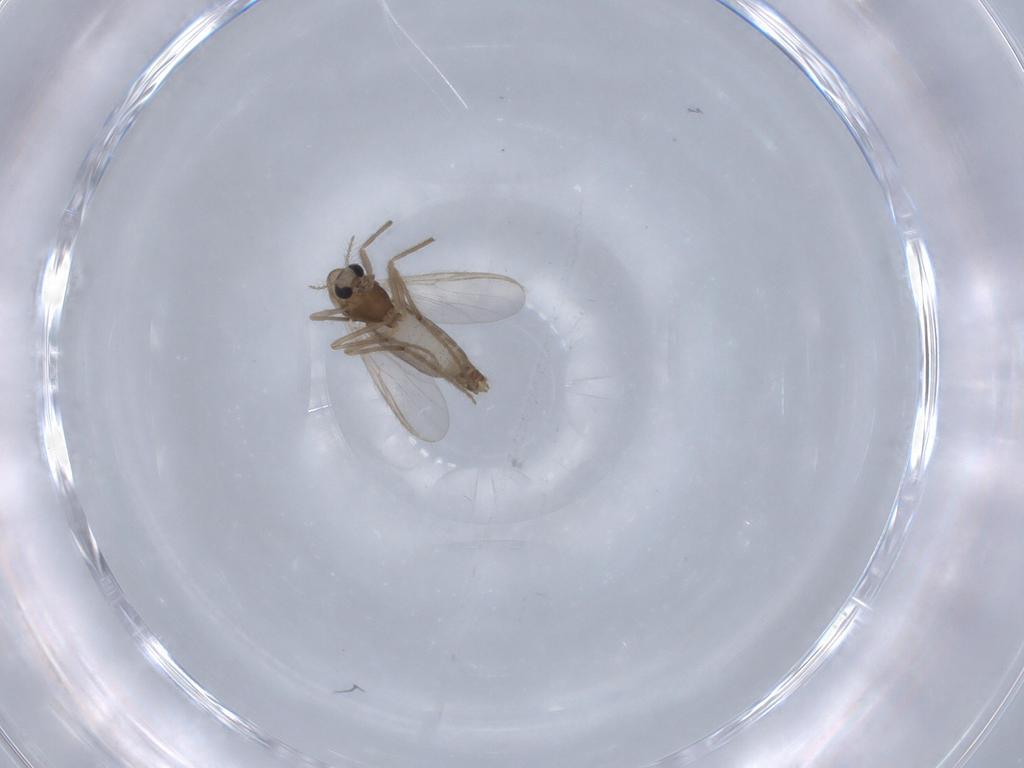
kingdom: Animalia
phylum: Arthropoda
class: Insecta
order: Diptera
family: Chironomidae
